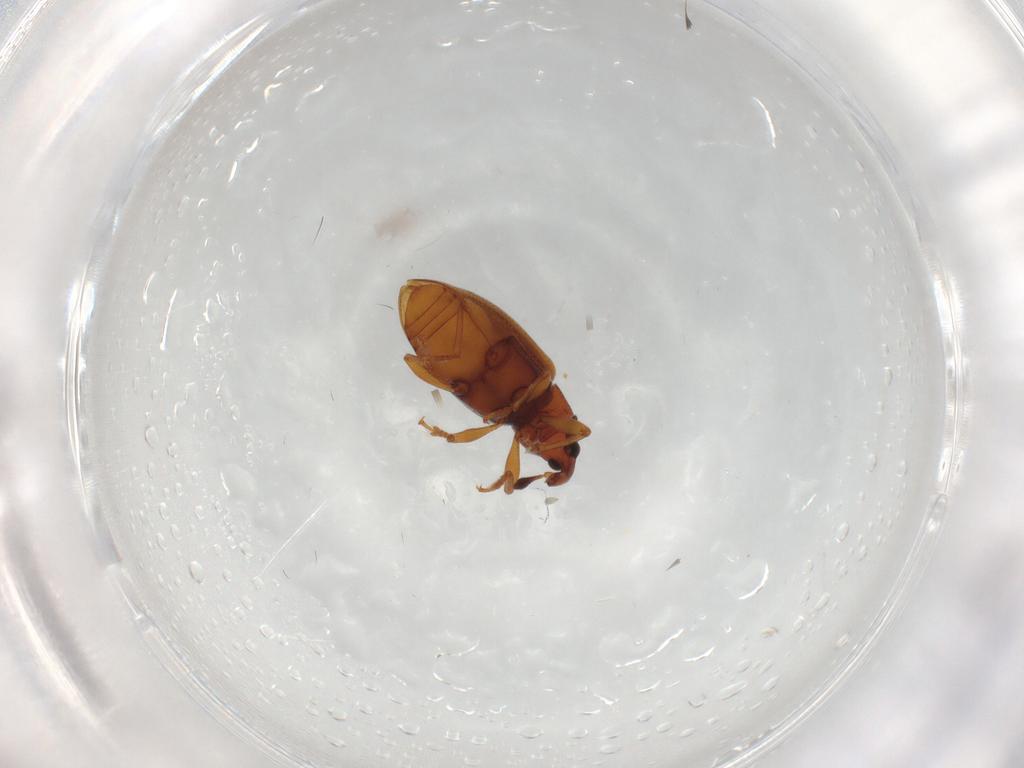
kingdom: Animalia
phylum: Arthropoda
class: Insecta
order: Coleoptera
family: Curculionidae
